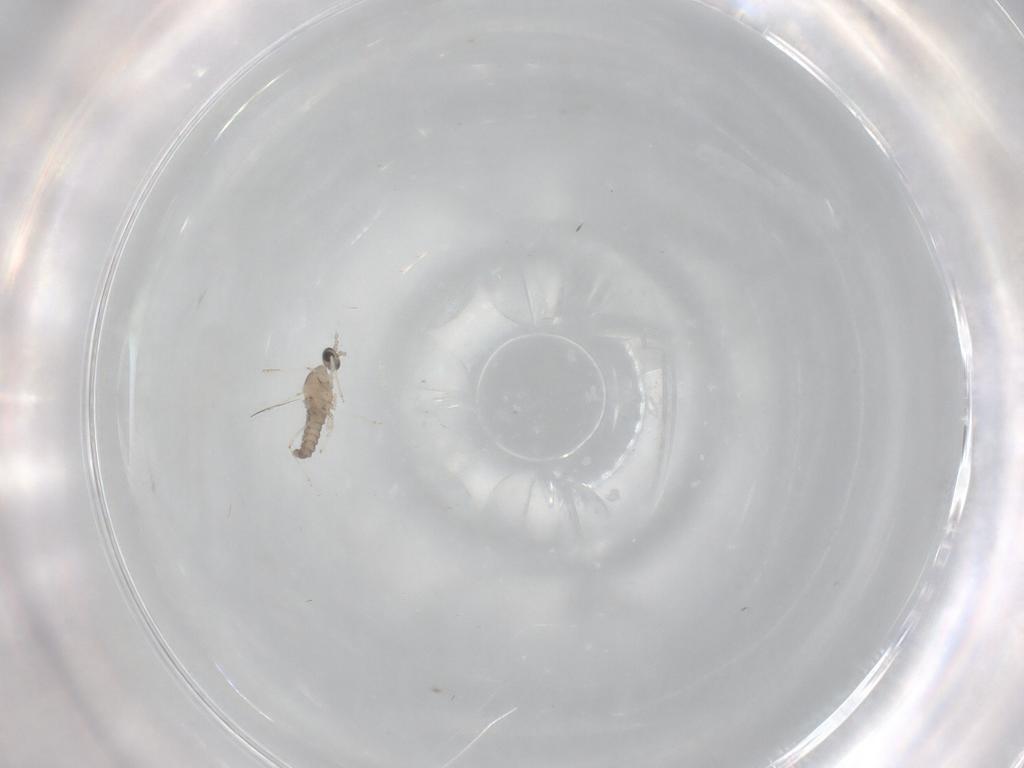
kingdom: Animalia
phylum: Arthropoda
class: Insecta
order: Diptera
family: Cecidomyiidae
